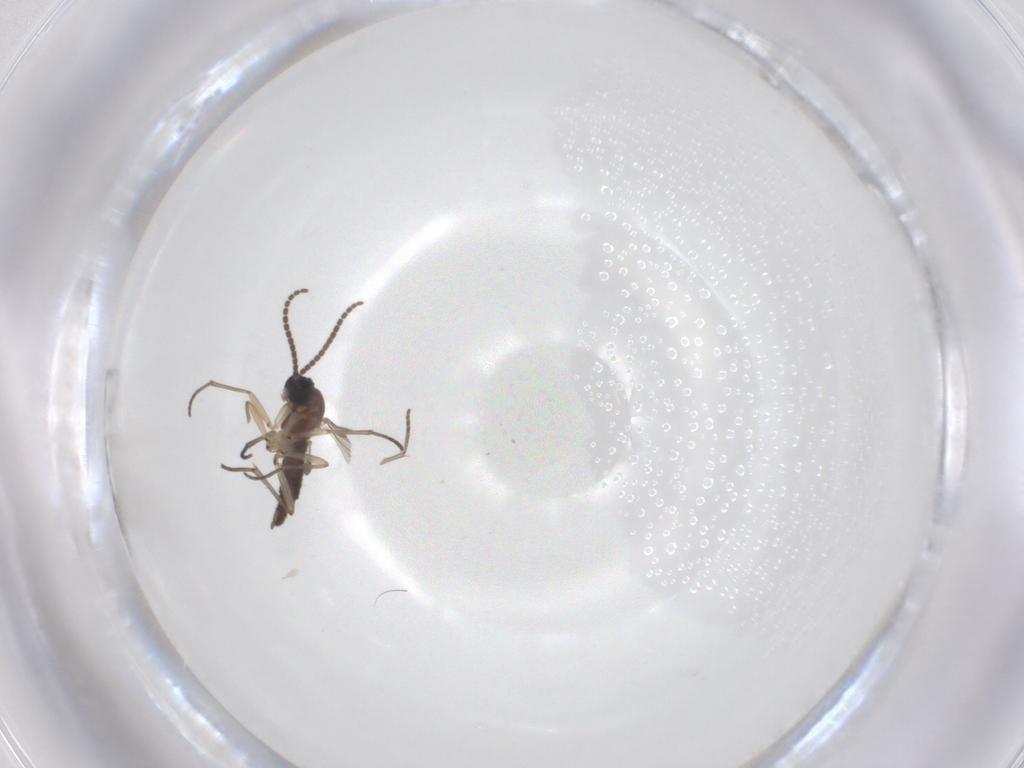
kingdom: Animalia
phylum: Arthropoda
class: Insecta
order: Diptera
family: Sciaridae
